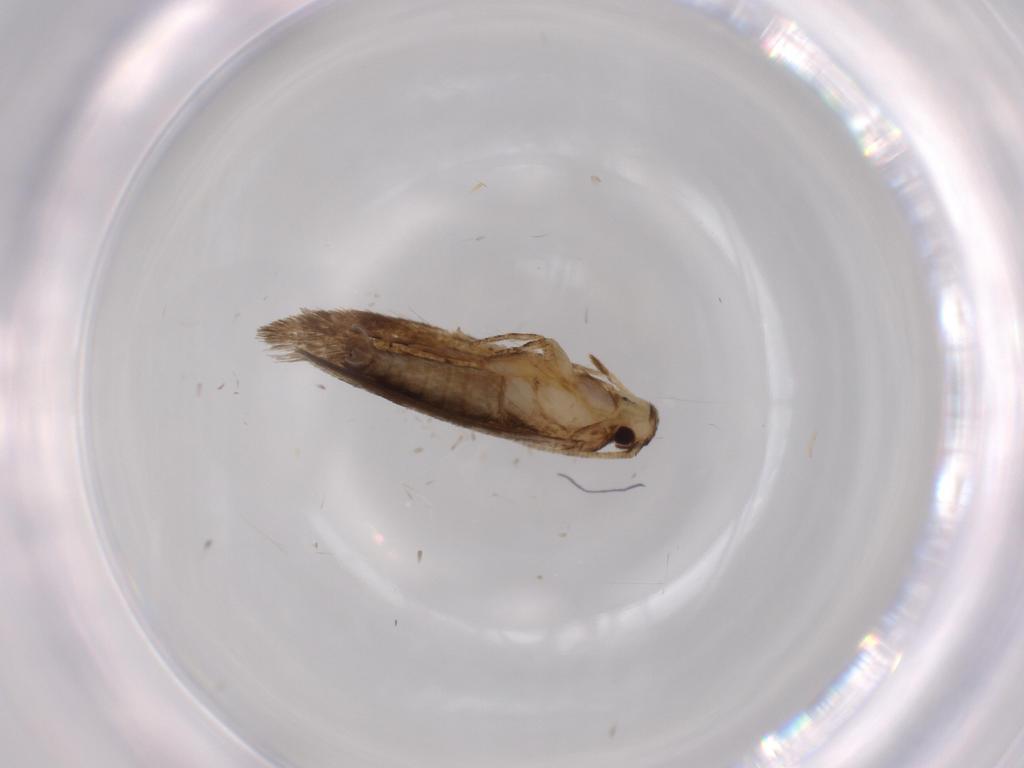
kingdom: Animalia
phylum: Arthropoda
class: Insecta
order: Lepidoptera
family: Tineidae
